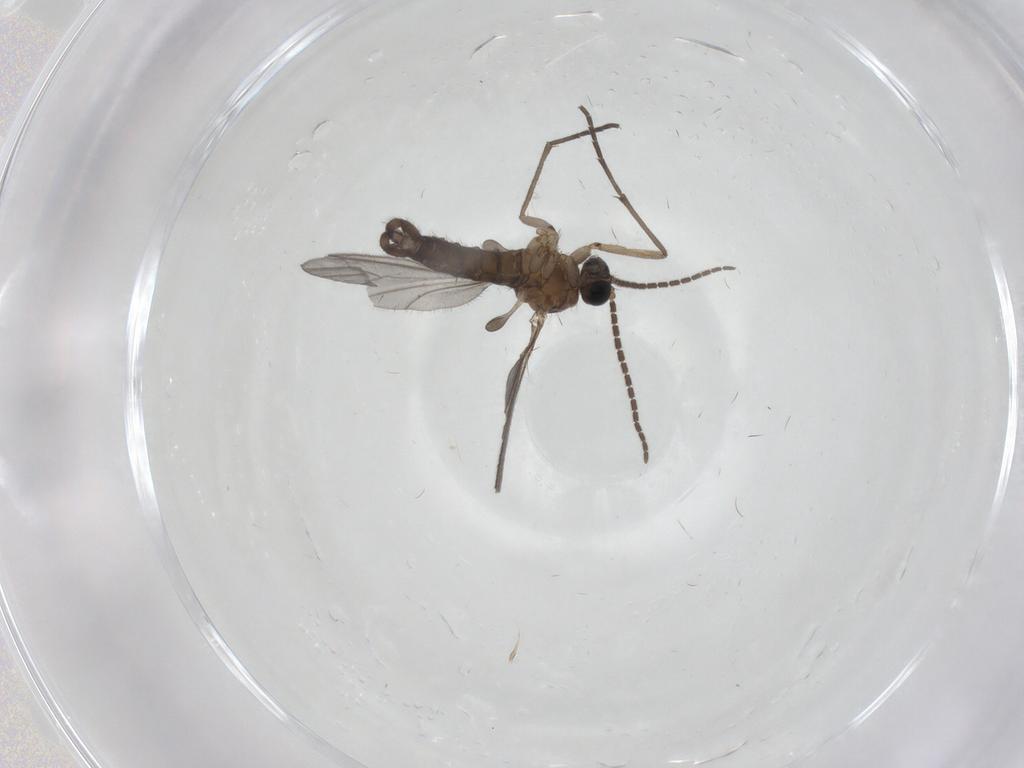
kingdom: Animalia
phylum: Arthropoda
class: Insecta
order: Diptera
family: Sciaridae
